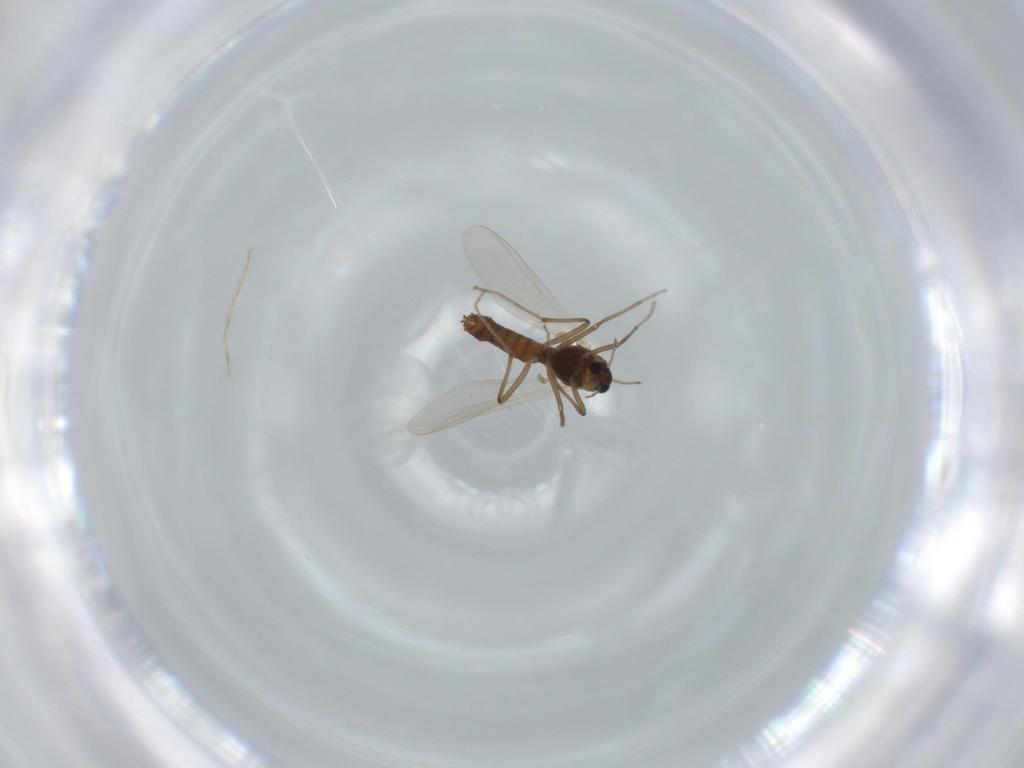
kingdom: Animalia
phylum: Arthropoda
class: Insecta
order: Diptera
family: Chironomidae
